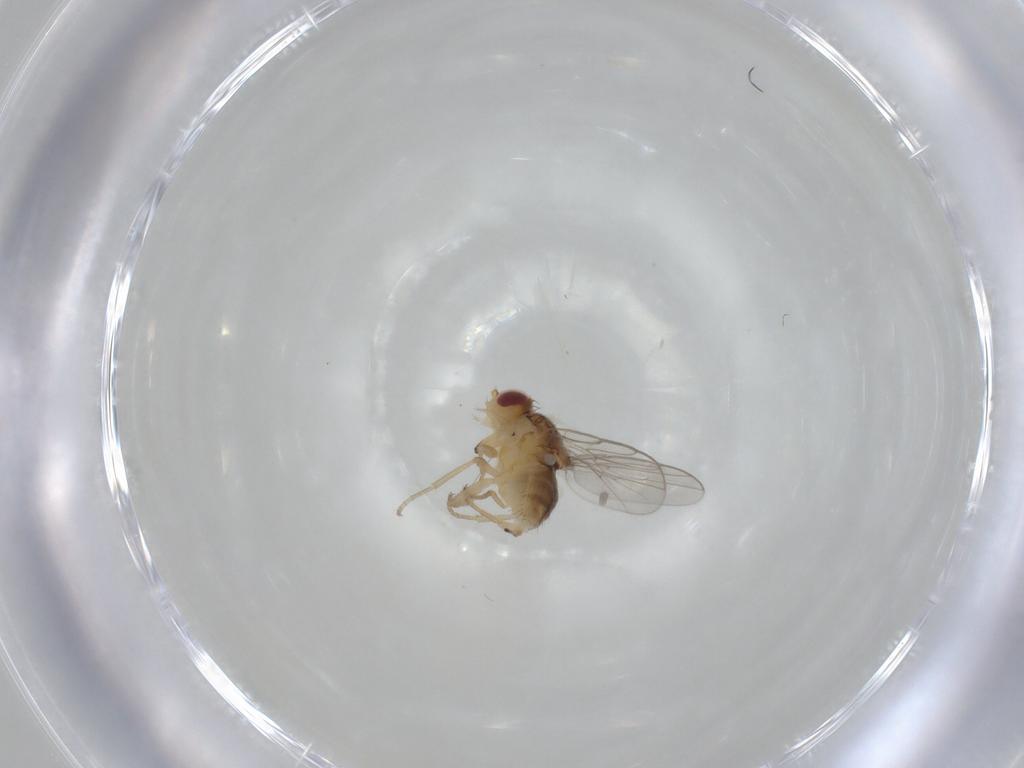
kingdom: Animalia
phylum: Arthropoda
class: Insecta
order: Diptera
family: Chloropidae
